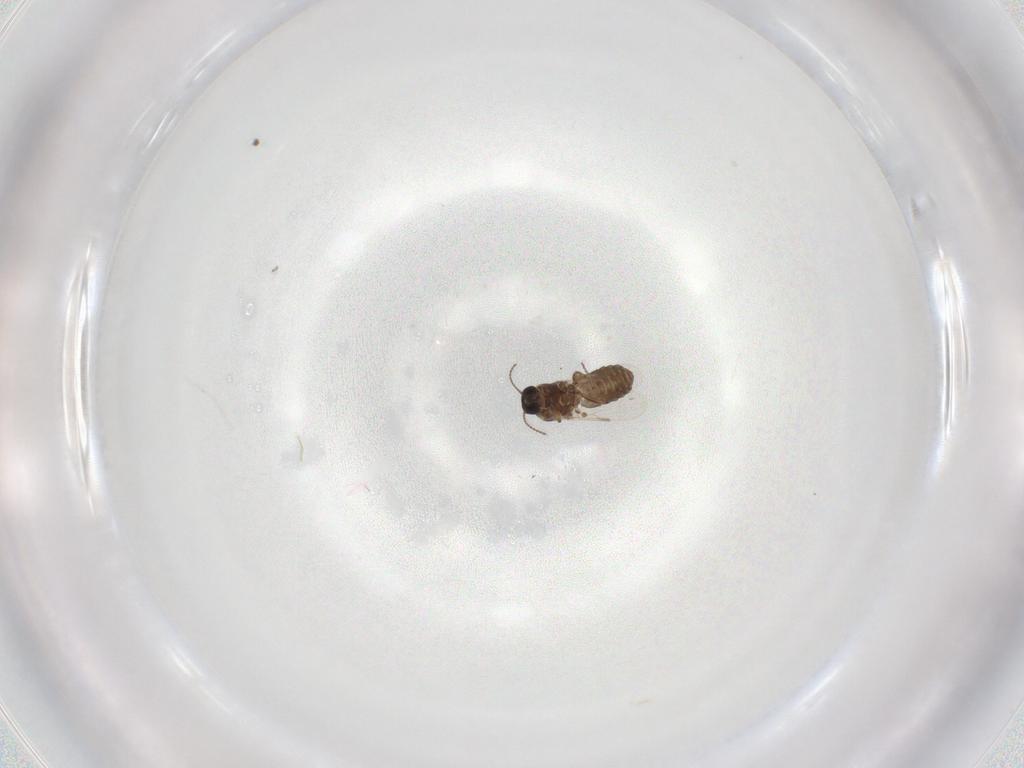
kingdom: Animalia
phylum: Arthropoda
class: Insecta
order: Diptera
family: Ceratopogonidae
